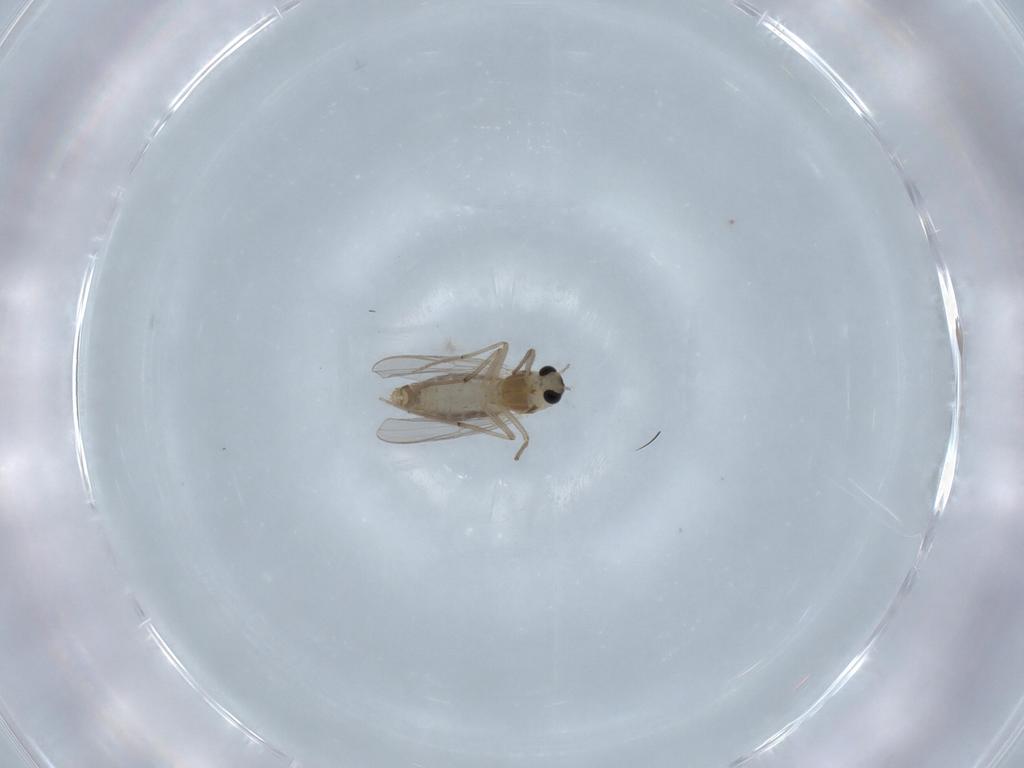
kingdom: Animalia
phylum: Arthropoda
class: Insecta
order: Diptera
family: Chironomidae
